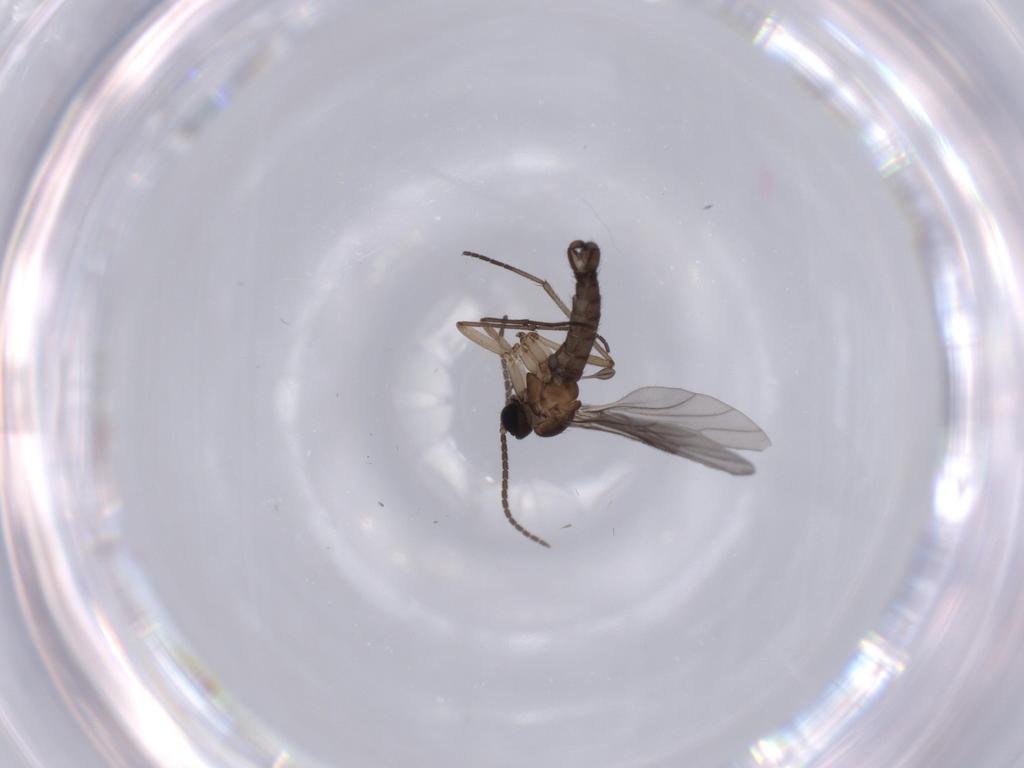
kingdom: Animalia
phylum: Arthropoda
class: Insecta
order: Diptera
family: Sciaridae
